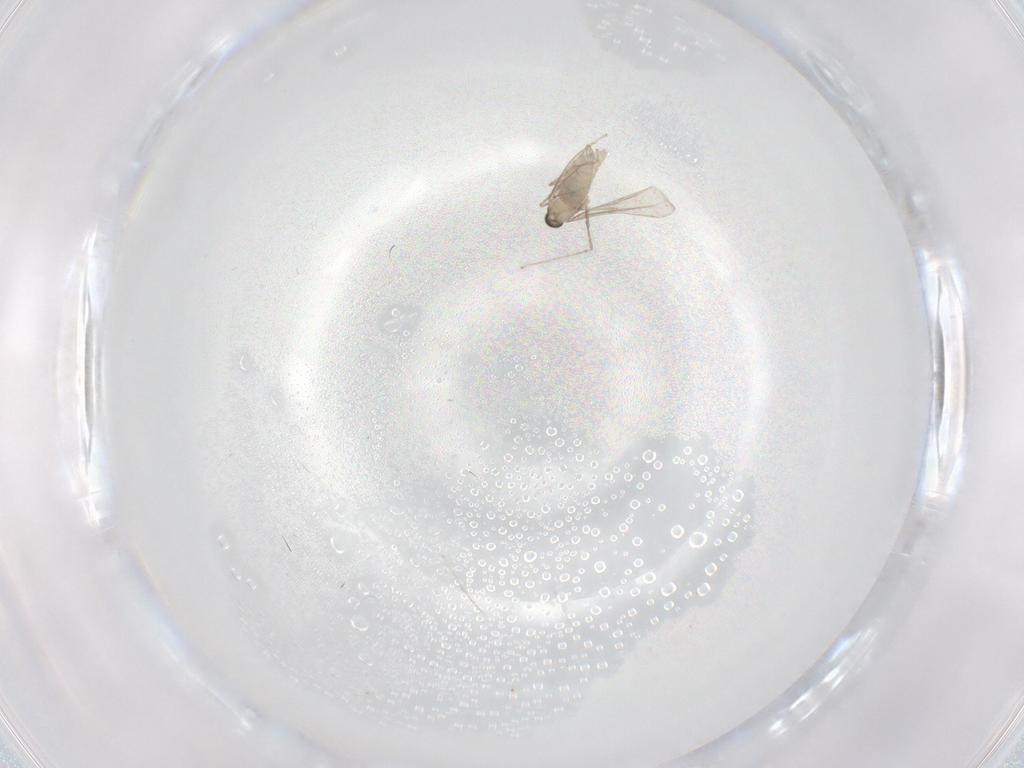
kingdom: Animalia
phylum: Arthropoda
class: Insecta
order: Diptera
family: Cecidomyiidae
